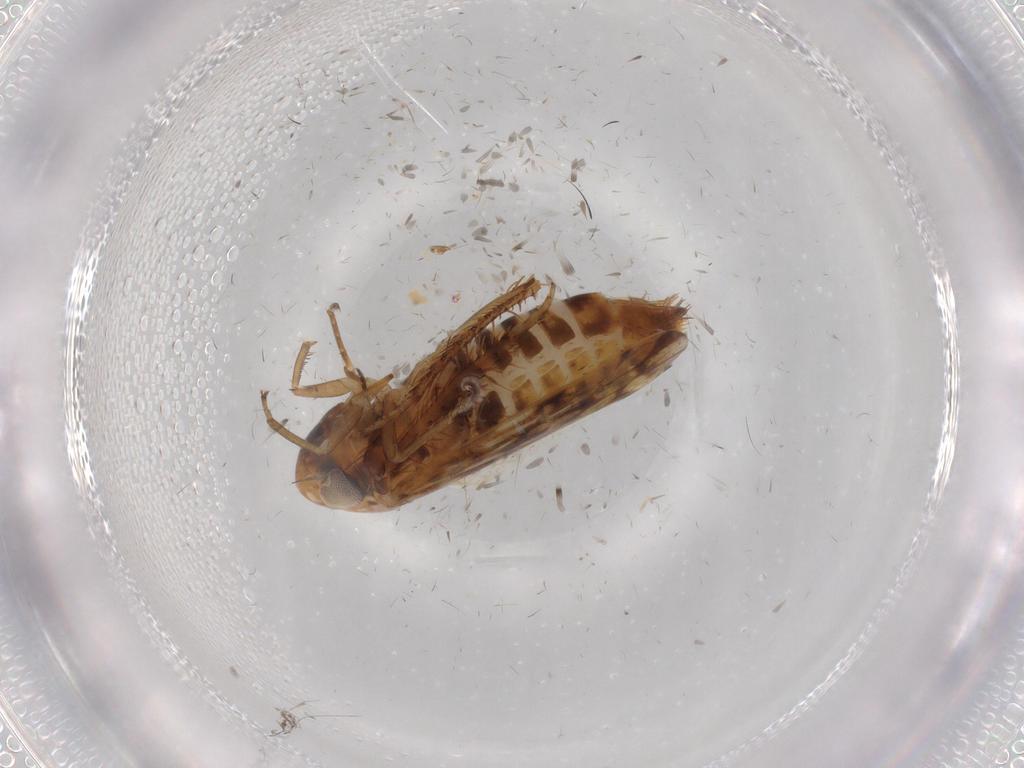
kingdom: Animalia
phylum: Arthropoda
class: Insecta
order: Hemiptera
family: Cicadellidae
